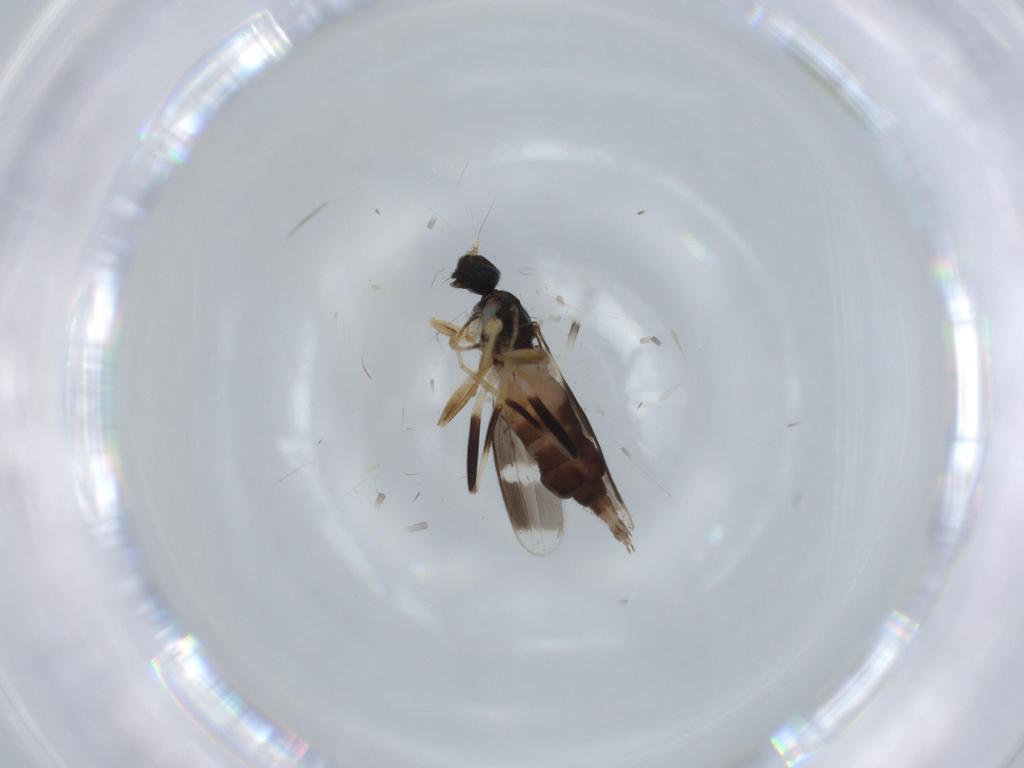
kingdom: Animalia
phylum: Arthropoda
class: Insecta
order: Diptera
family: Hybotidae
